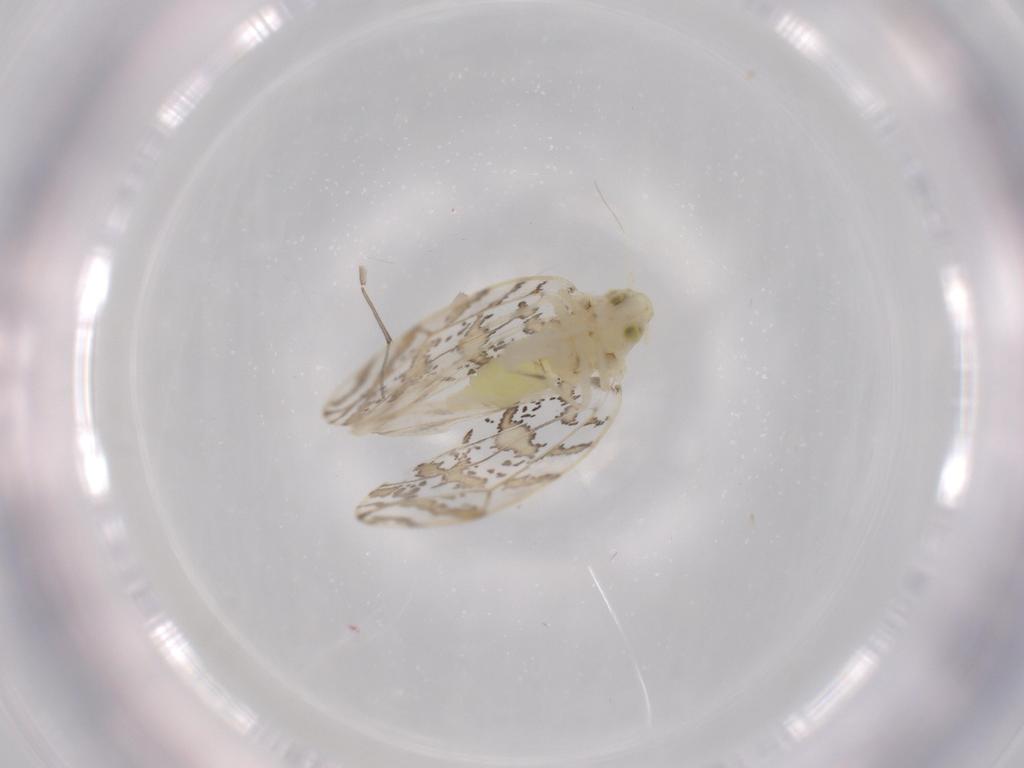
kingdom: Animalia
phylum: Arthropoda
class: Insecta
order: Hemiptera
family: Aleyrodidae
